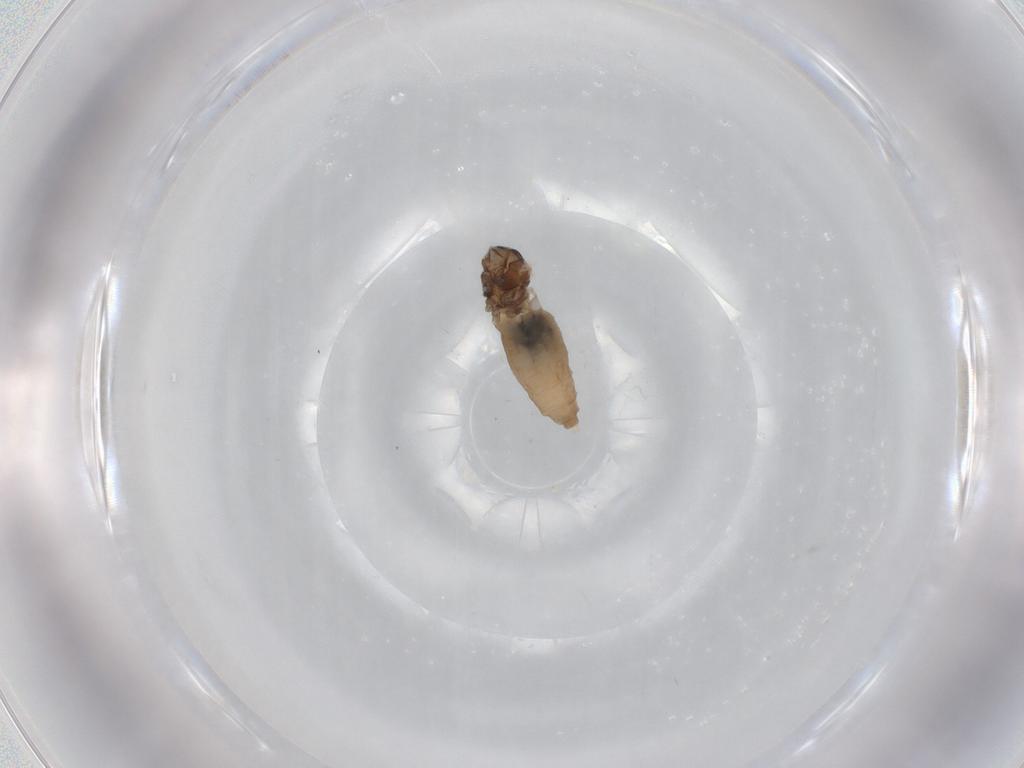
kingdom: Animalia
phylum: Arthropoda
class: Insecta
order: Diptera
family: Cecidomyiidae
